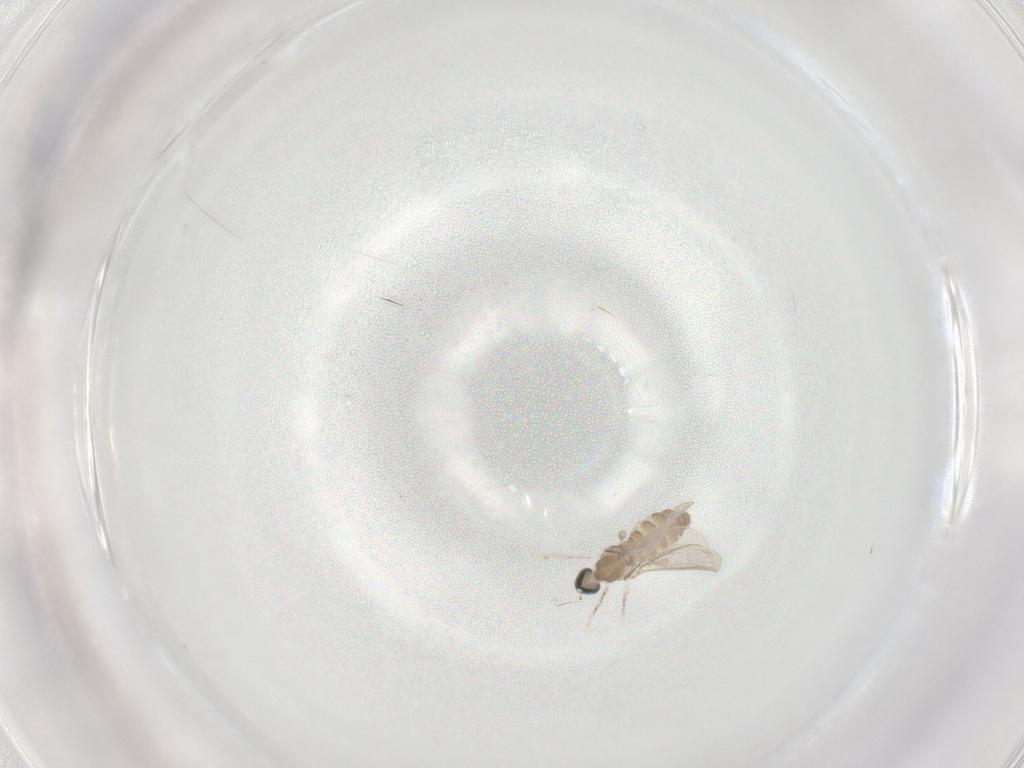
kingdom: Animalia
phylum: Arthropoda
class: Insecta
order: Diptera
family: Cecidomyiidae
